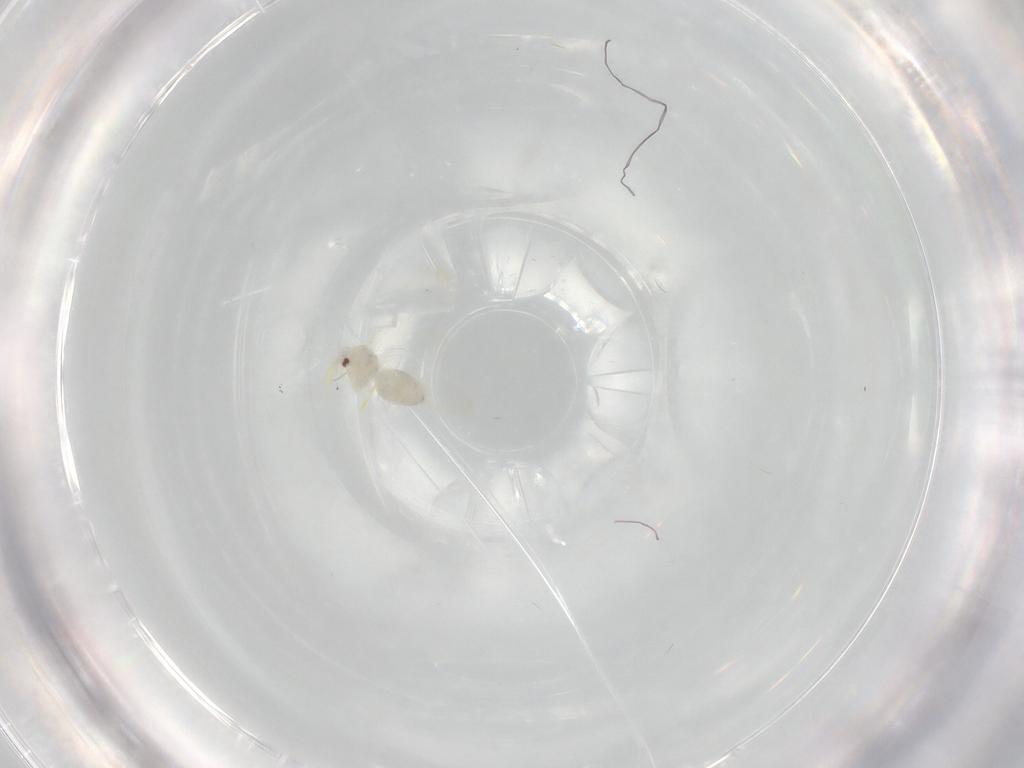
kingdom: Animalia
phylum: Arthropoda
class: Insecta
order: Hemiptera
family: Aleyrodidae
